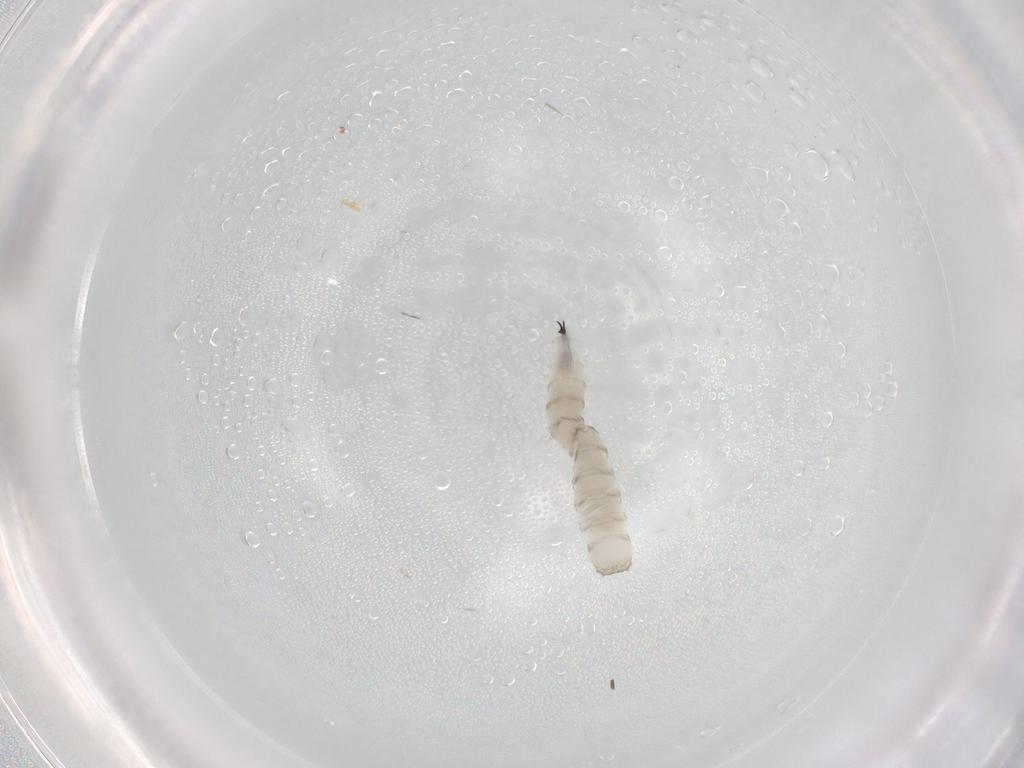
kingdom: Animalia
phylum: Arthropoda
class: Insecta
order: Diptera
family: Sarcophagidae
